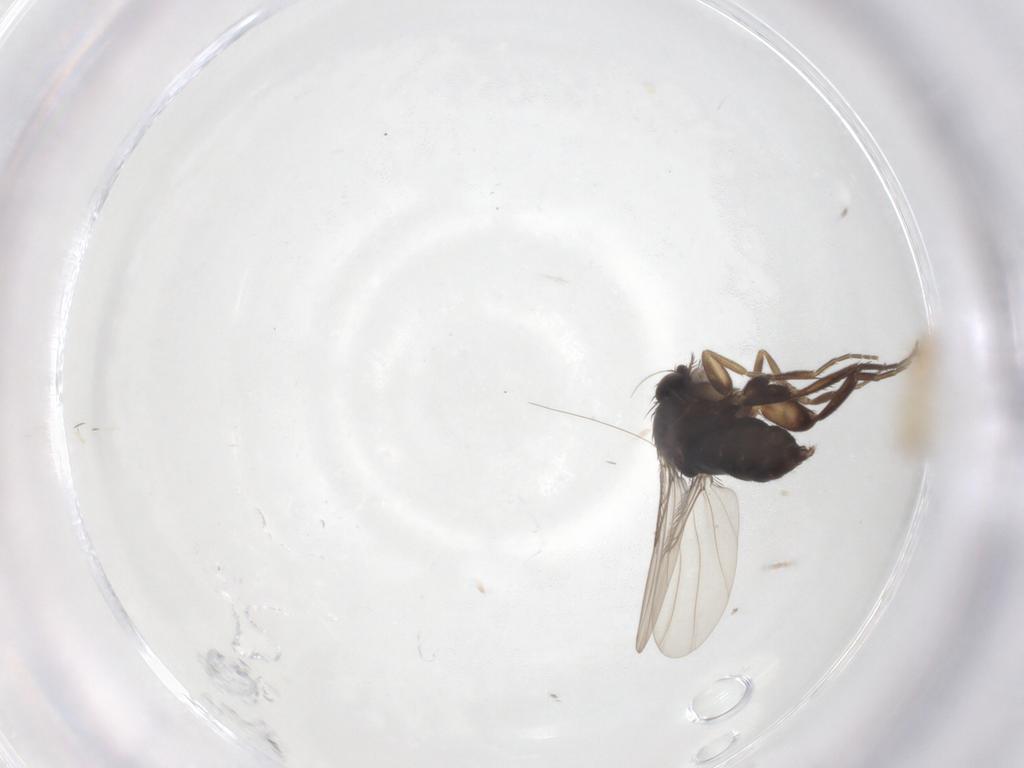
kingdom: Animalia
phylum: Arthropoda
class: Insecta
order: Diptera
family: Phoridae
